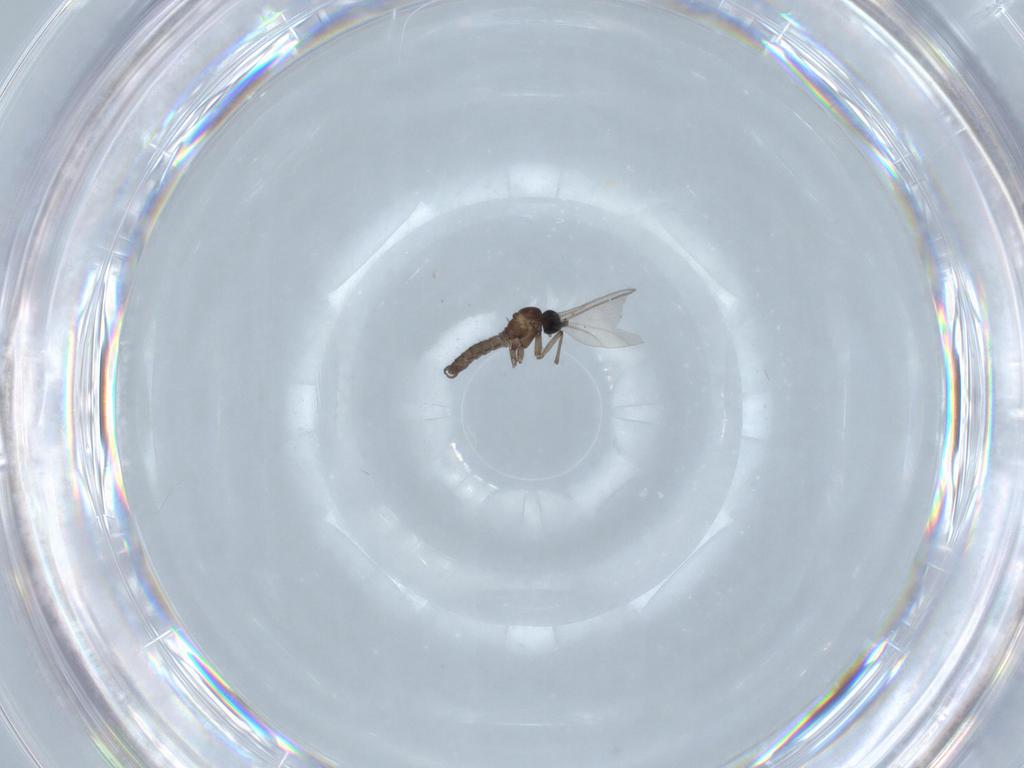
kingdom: Animalia
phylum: Arthropoda
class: Insecta
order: Diptera
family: Sciaridae
